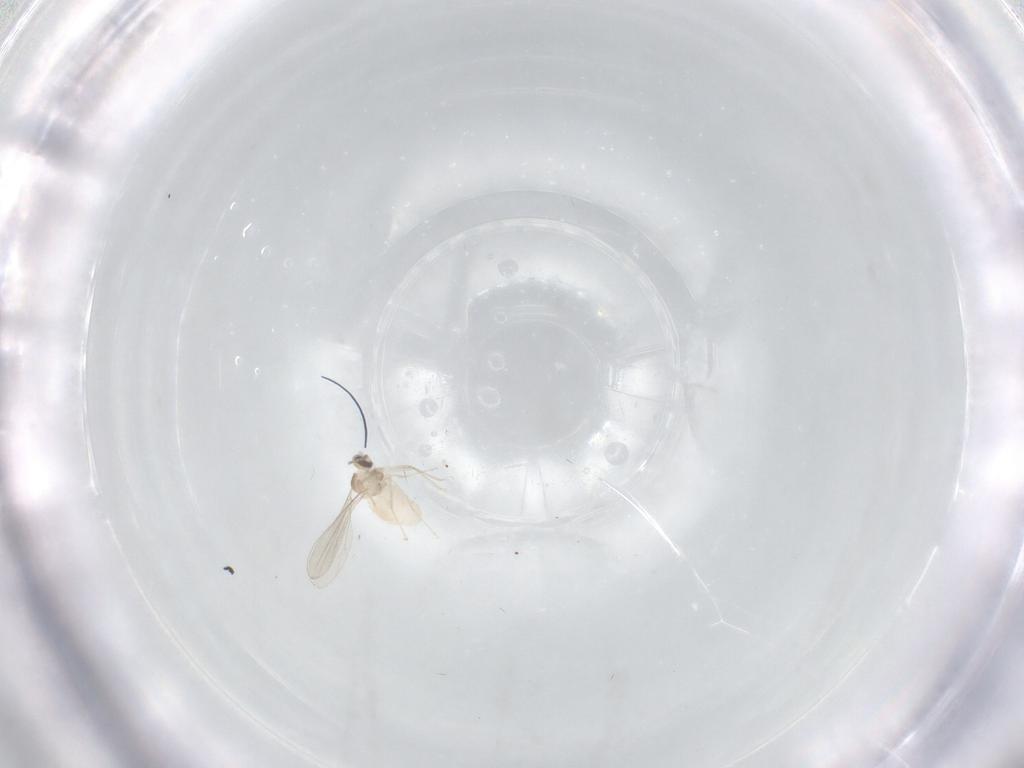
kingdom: Animalia
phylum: Arthropoda
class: Insecta
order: Diptera
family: Cecidomyiidae
